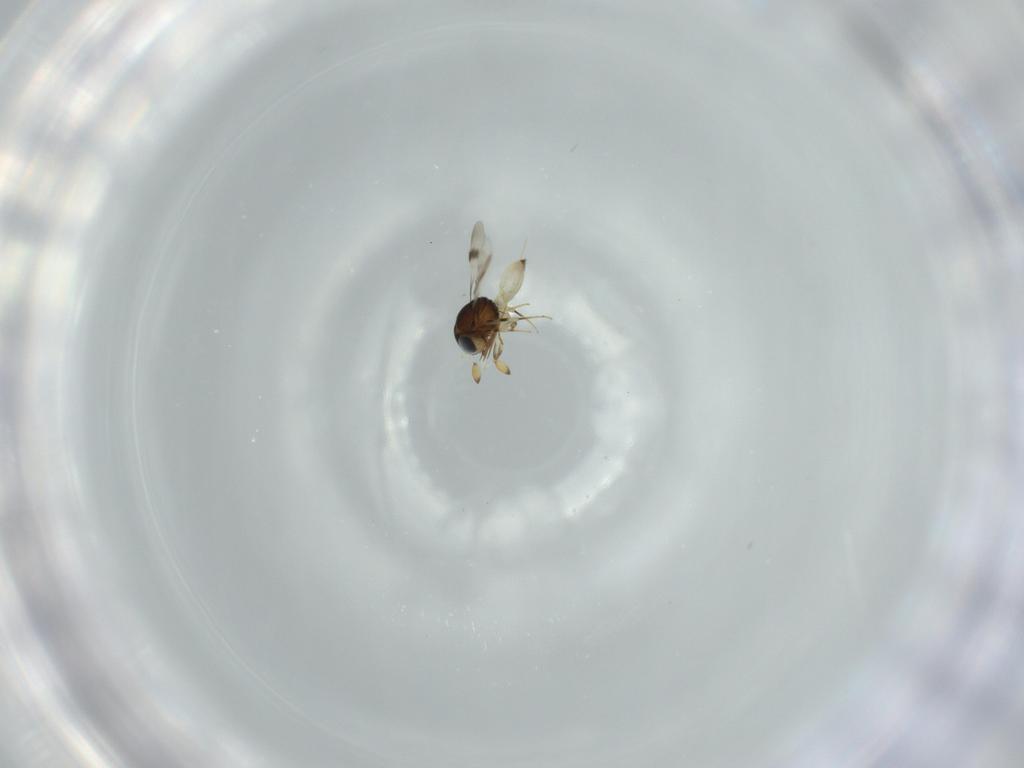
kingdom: Animalia
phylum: Arthropoda
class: Insecta
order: Hymenoptera
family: Scelionidae
